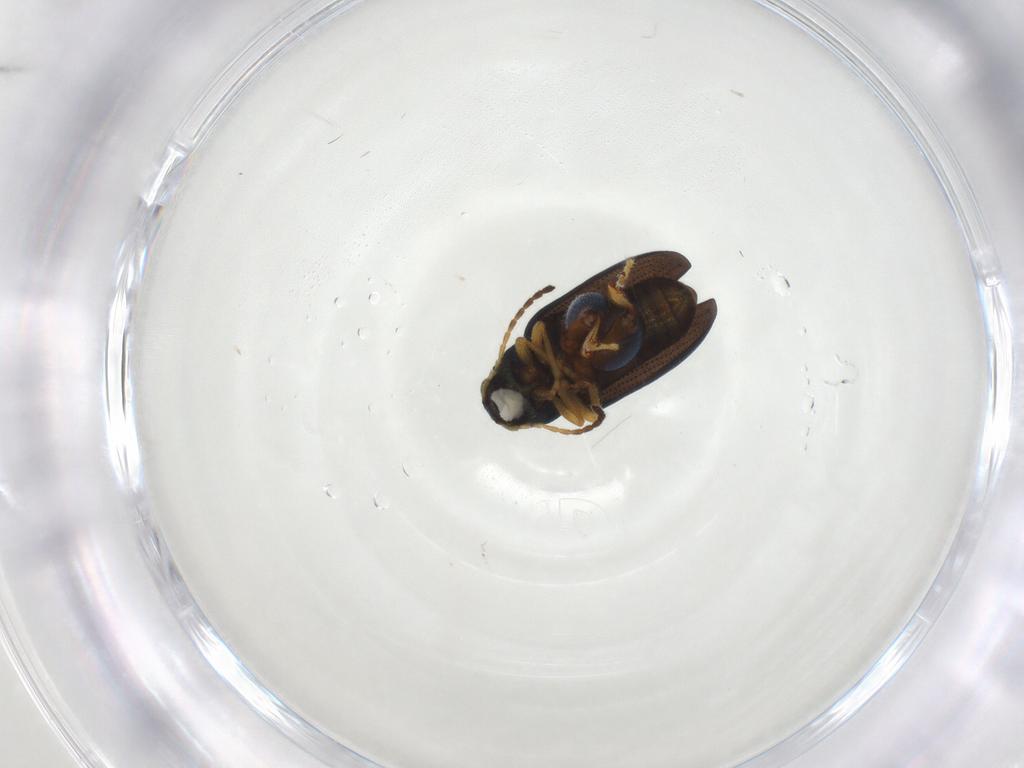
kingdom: Animalia
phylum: Arthropoda
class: Insecta
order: Coleoptera
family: Chrysomelidae
